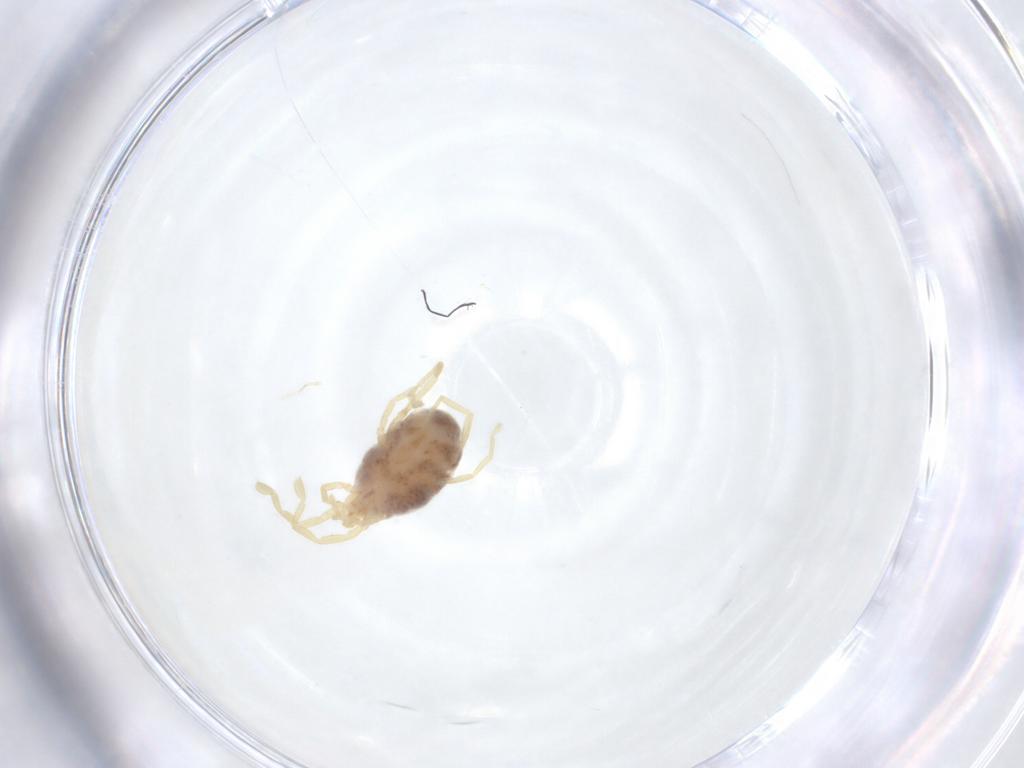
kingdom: Animalia
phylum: Arthropoda
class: Arachnida
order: Trombidiformes
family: Erythraeidae
